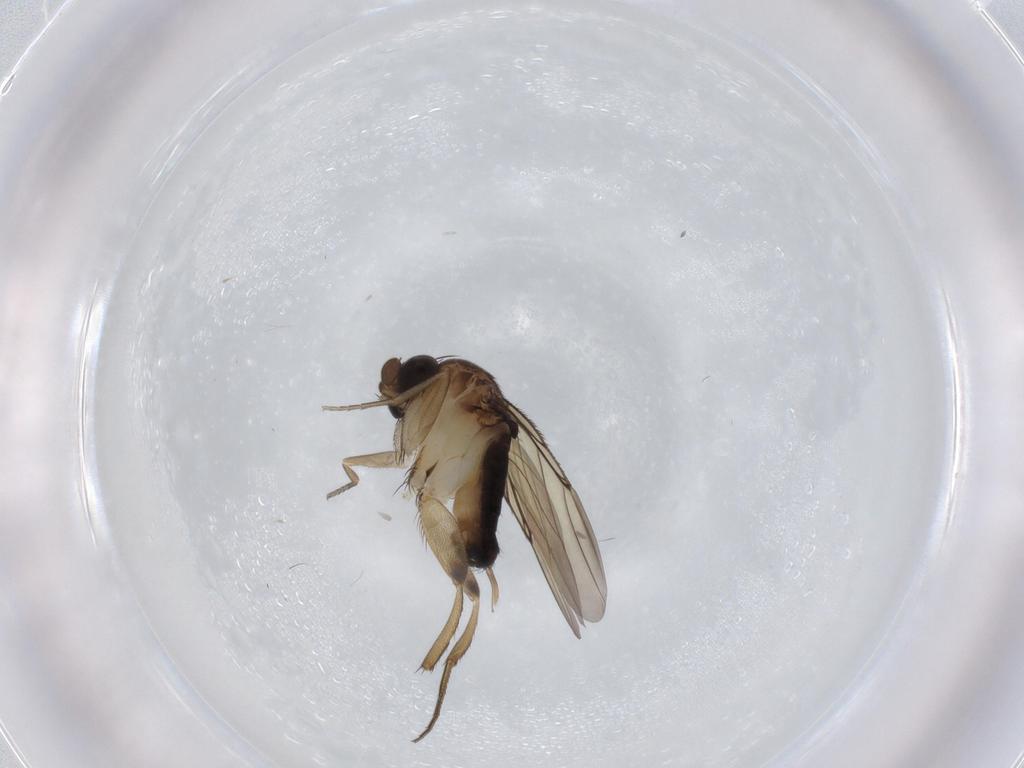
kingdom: Animalia
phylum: Arthropoda
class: Insecta
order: Diptera
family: Phoridae
